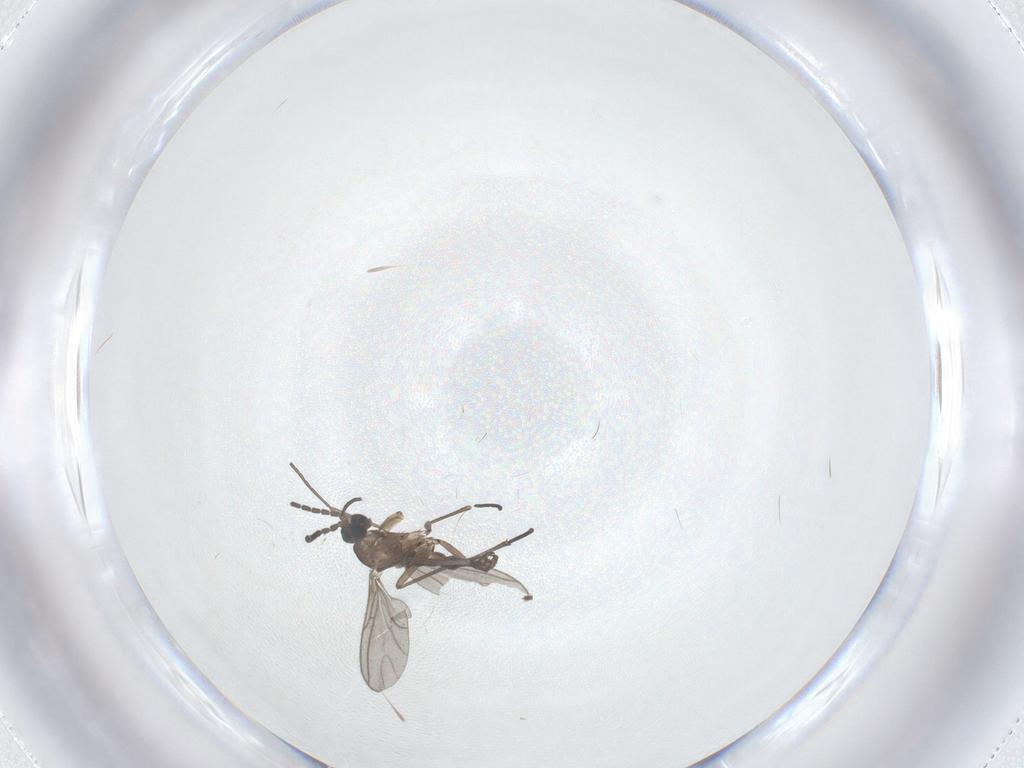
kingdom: Animalia
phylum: Arthropoda
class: Insecta
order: Diptera
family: Sciaridae
